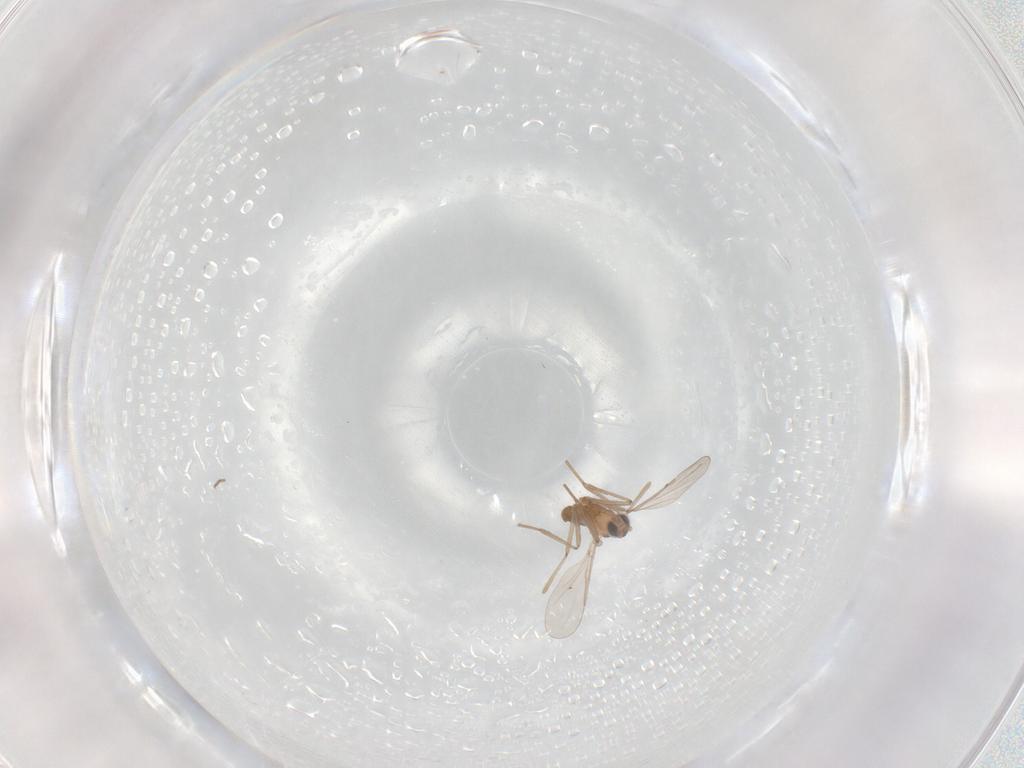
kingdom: Animalia
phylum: Arthropoda
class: Insecta
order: Diptera
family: Cecidomyiidae
